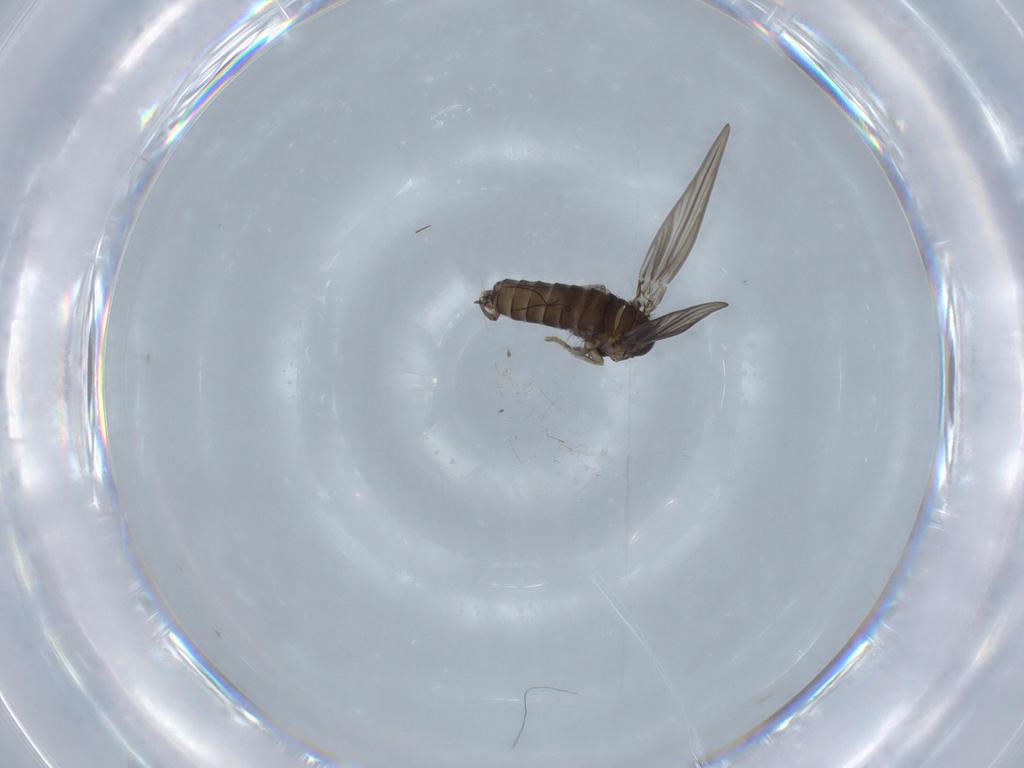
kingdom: Animalia
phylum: Arthropoda
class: Insecta
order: Diptera
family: Psychodidae
